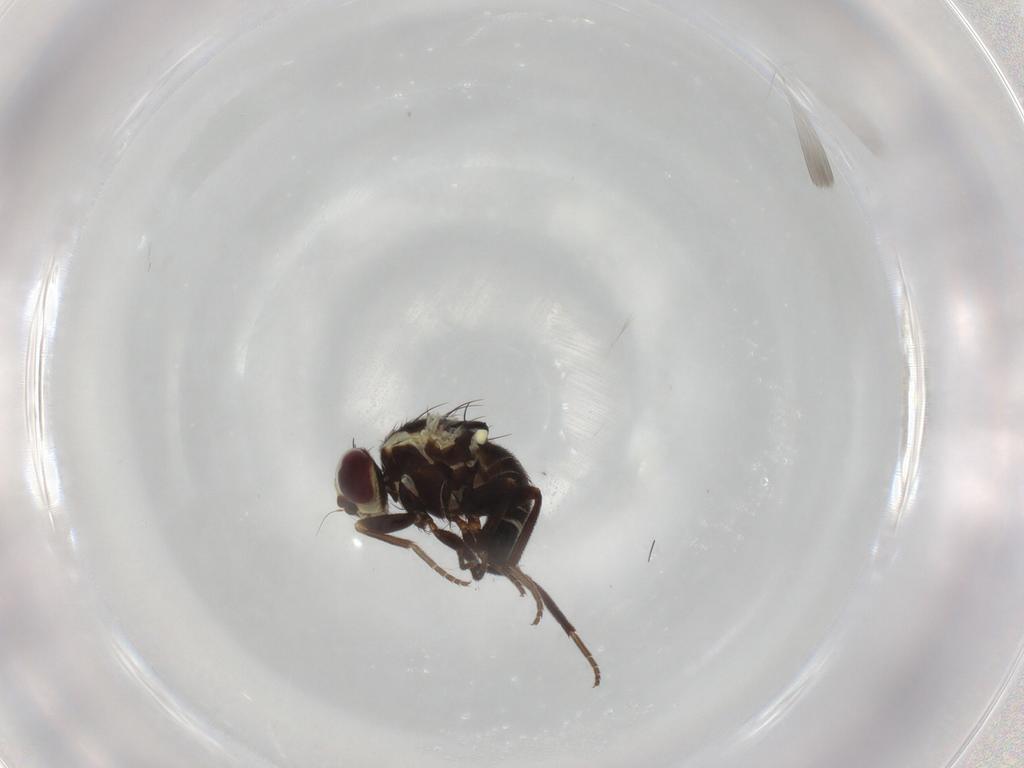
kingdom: Animalia
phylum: Arthropoda
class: Insecta
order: Diptera
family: Agromyzidae
